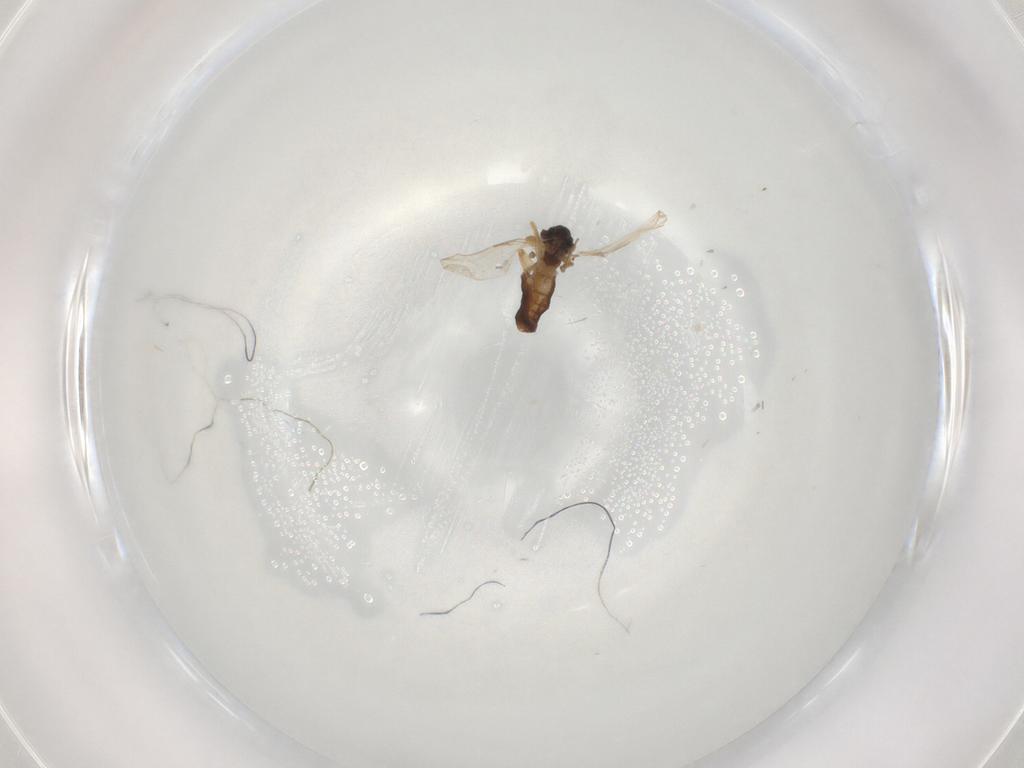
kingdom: Animalia
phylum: Arthropoda
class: Insecta
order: Diptera
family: Ceratopogonidae
